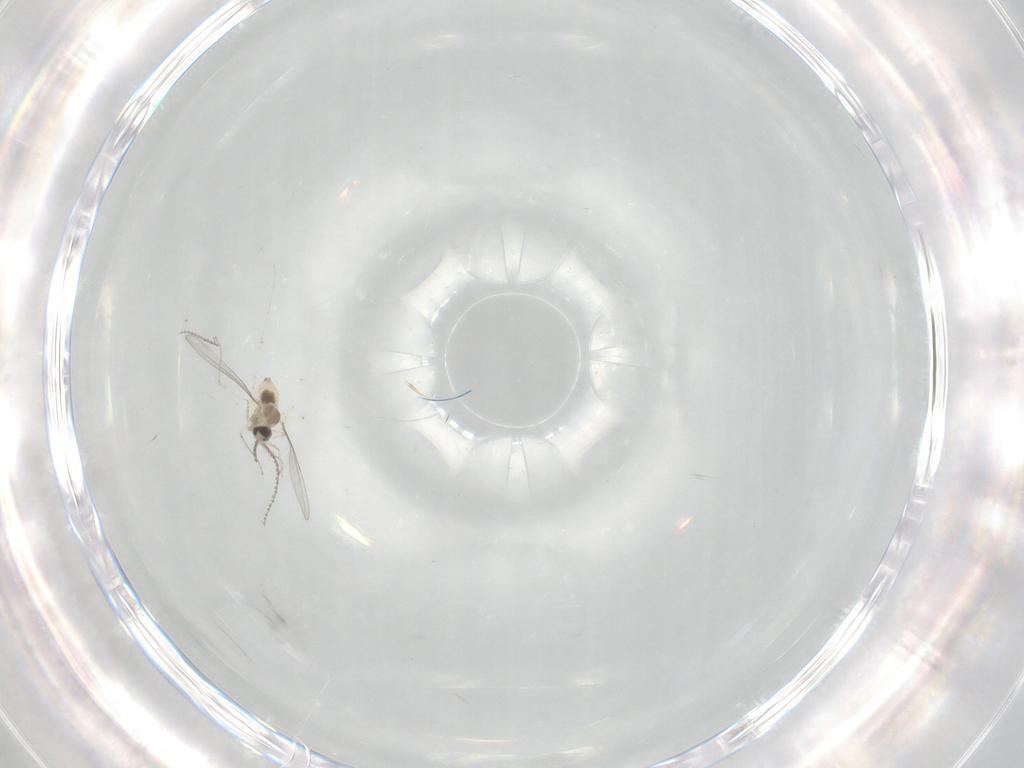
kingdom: Animalia
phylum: Arthropoda
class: Insecta
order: Diptera
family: Cecidomyiidae
